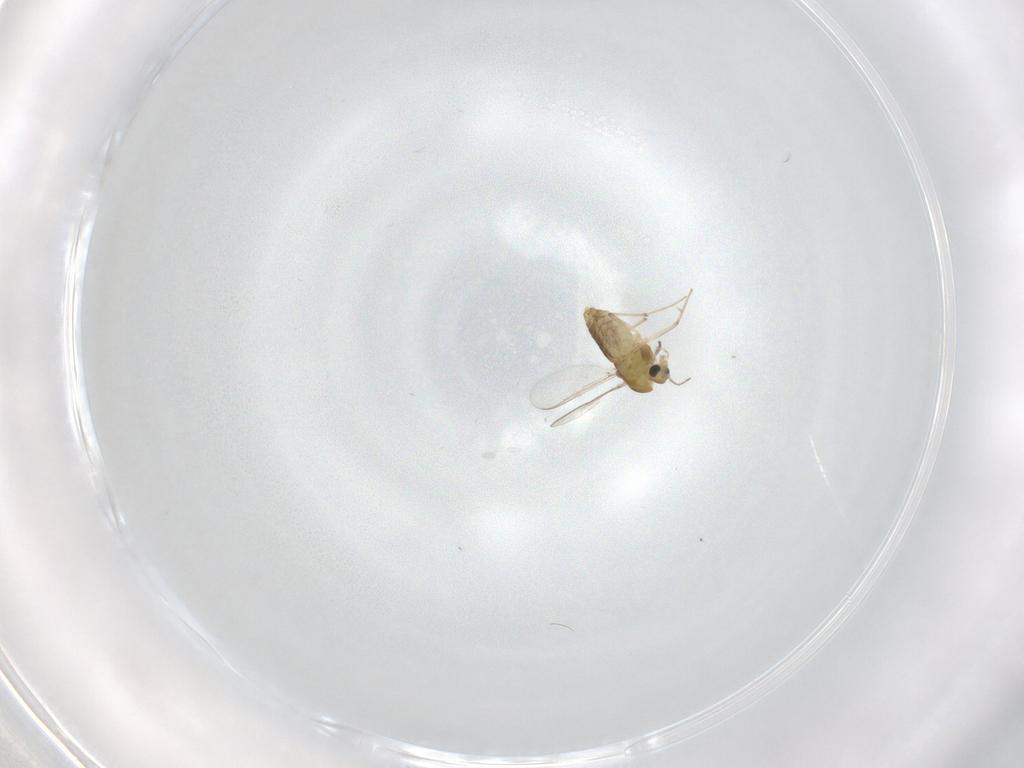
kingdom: Animalia
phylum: Arthropoda
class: Insecta
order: Diptera
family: Chironomidae
